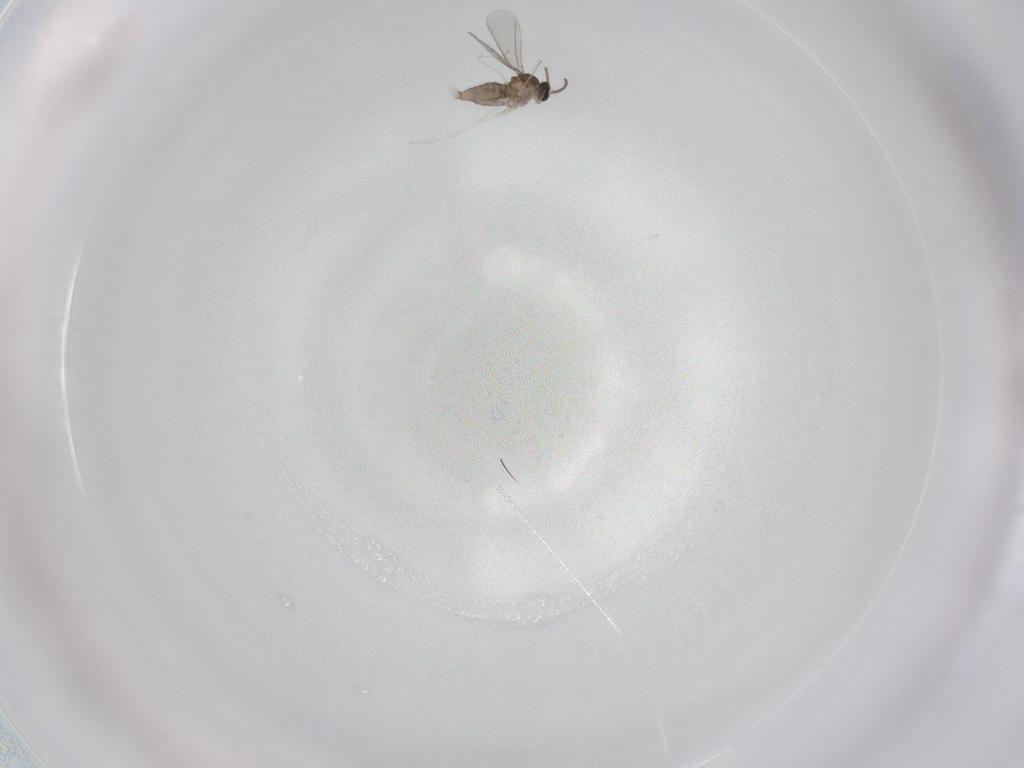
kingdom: Animalia
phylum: Arthropoda
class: Insecta
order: Diptera
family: Cecidomyiidae
